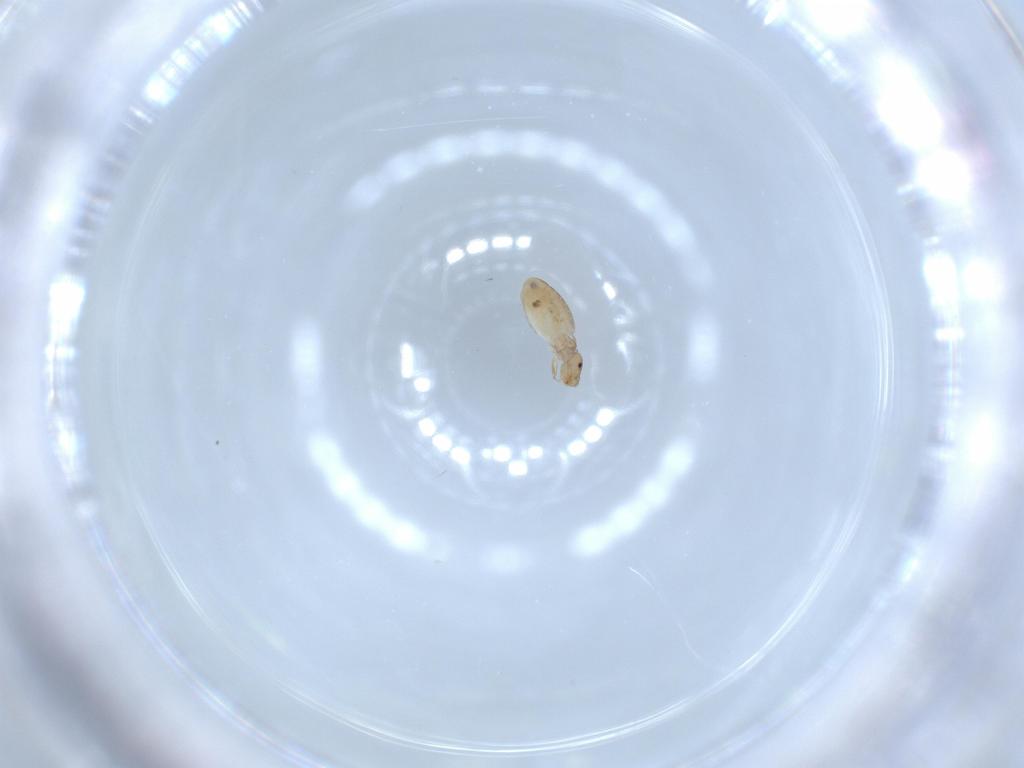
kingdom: Animalia
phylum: Arthropoda
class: Insecta
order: Psocodea
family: Liposcelididae
